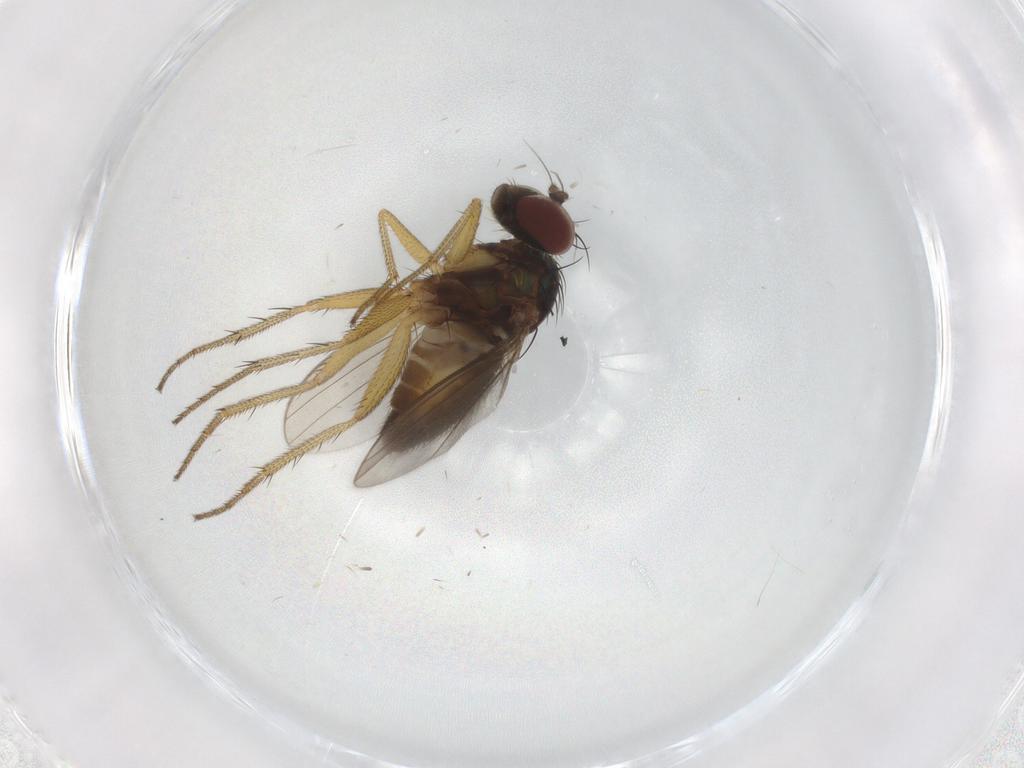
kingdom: Animalia
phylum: Arthropoda
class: Insecta
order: Diptera
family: Dolichopodidae
